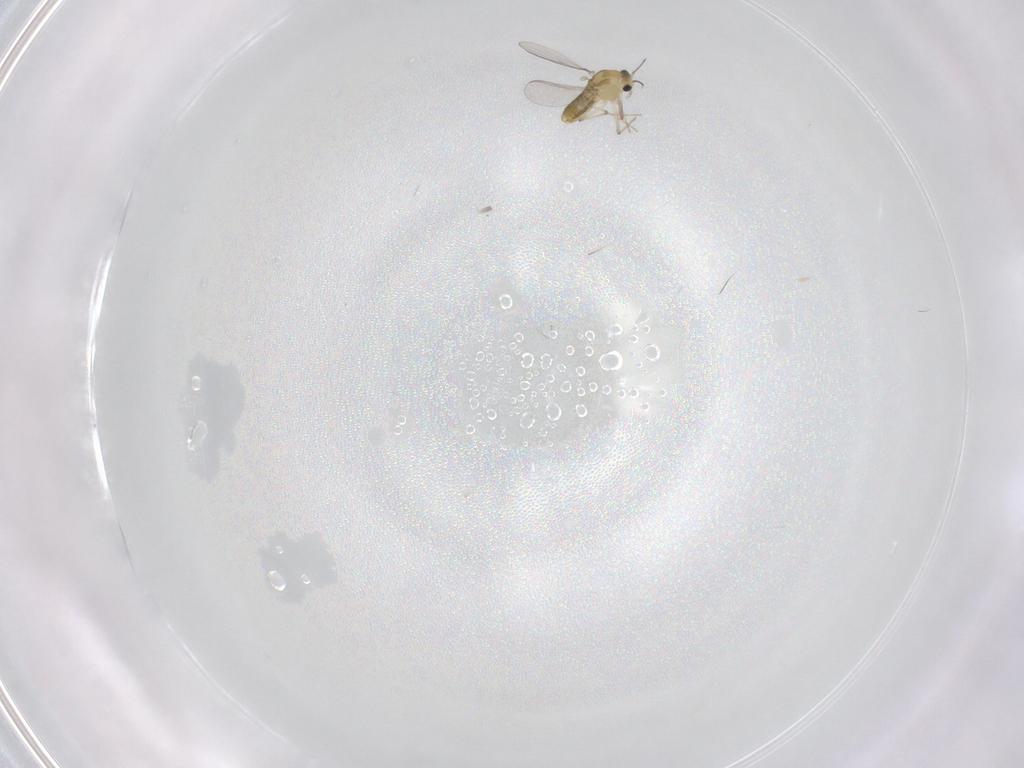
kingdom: Animalia
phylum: Arthropoda
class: Insecta
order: Diptera
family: Chironomidae
